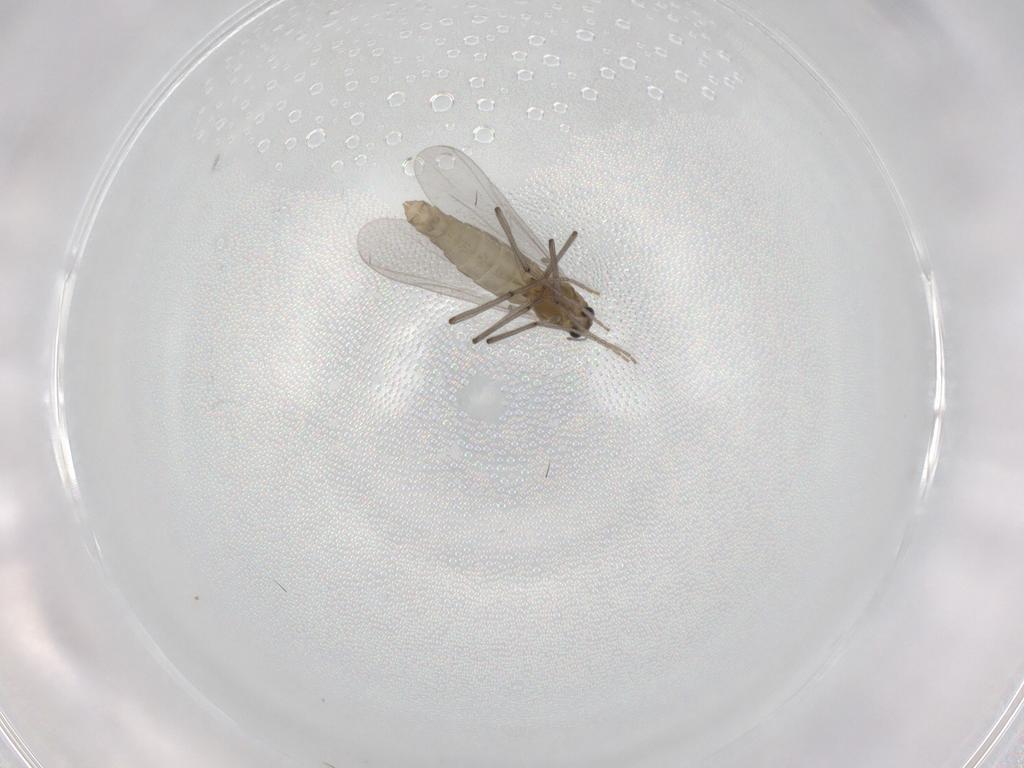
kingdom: Animalia
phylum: Arthropoda
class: Insecta
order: Diptera
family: Chironomidae
